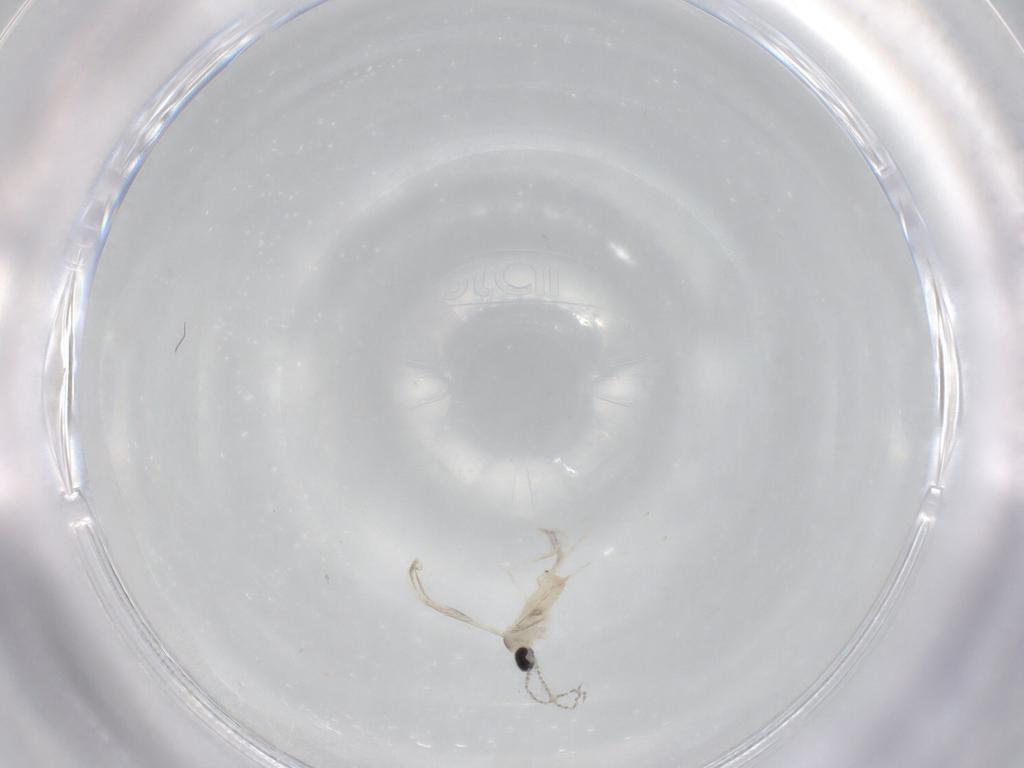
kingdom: Animalia
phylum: Arthropoda
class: Insecta
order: Diptera
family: Cecidomyiidae
